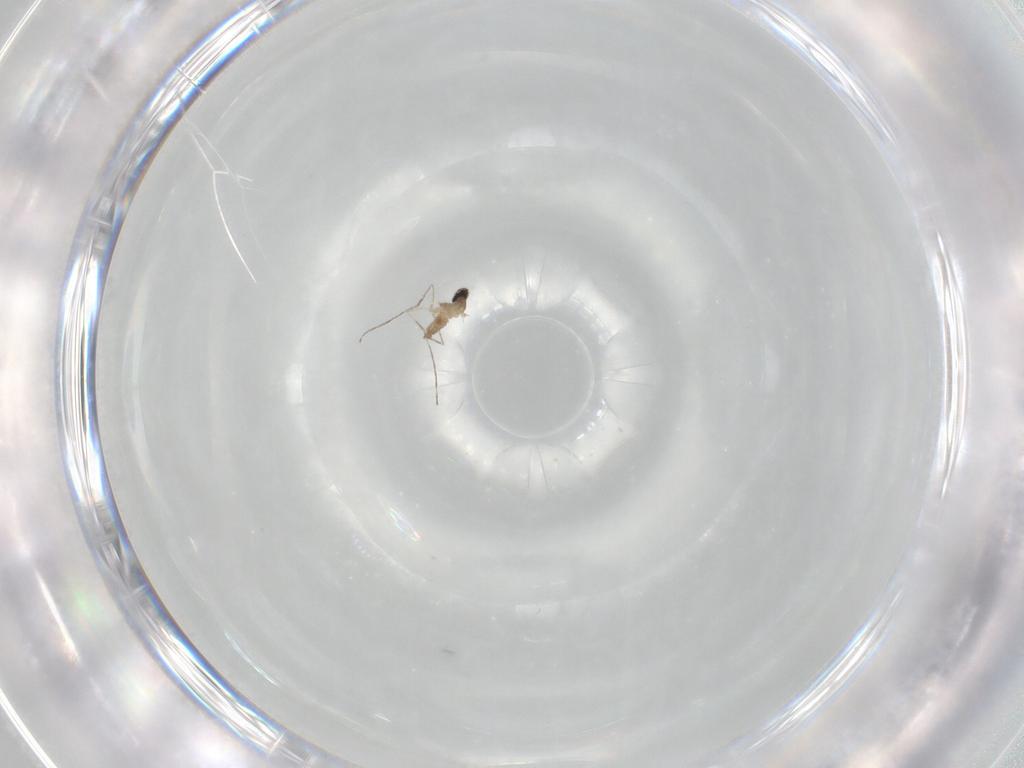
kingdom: Animalia
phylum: Arthropoda
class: Insecta
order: Diptera
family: Cecidomyiidae
